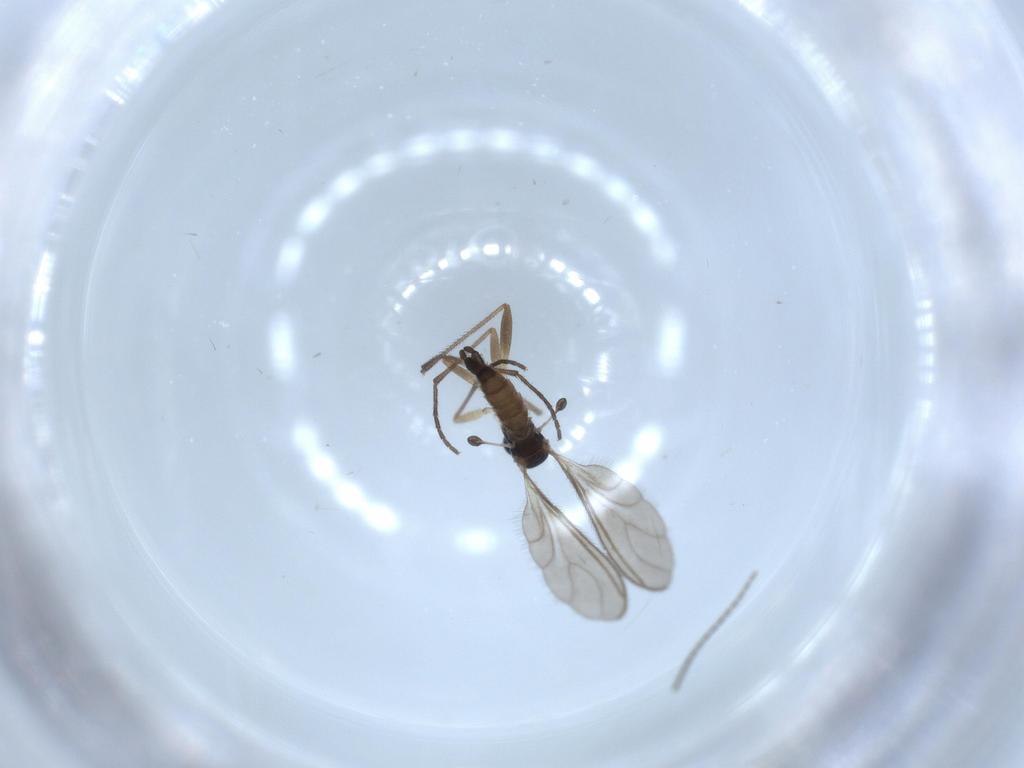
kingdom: Animalia
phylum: Arthropoda
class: Insecta
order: Diptera
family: Sciaridae
